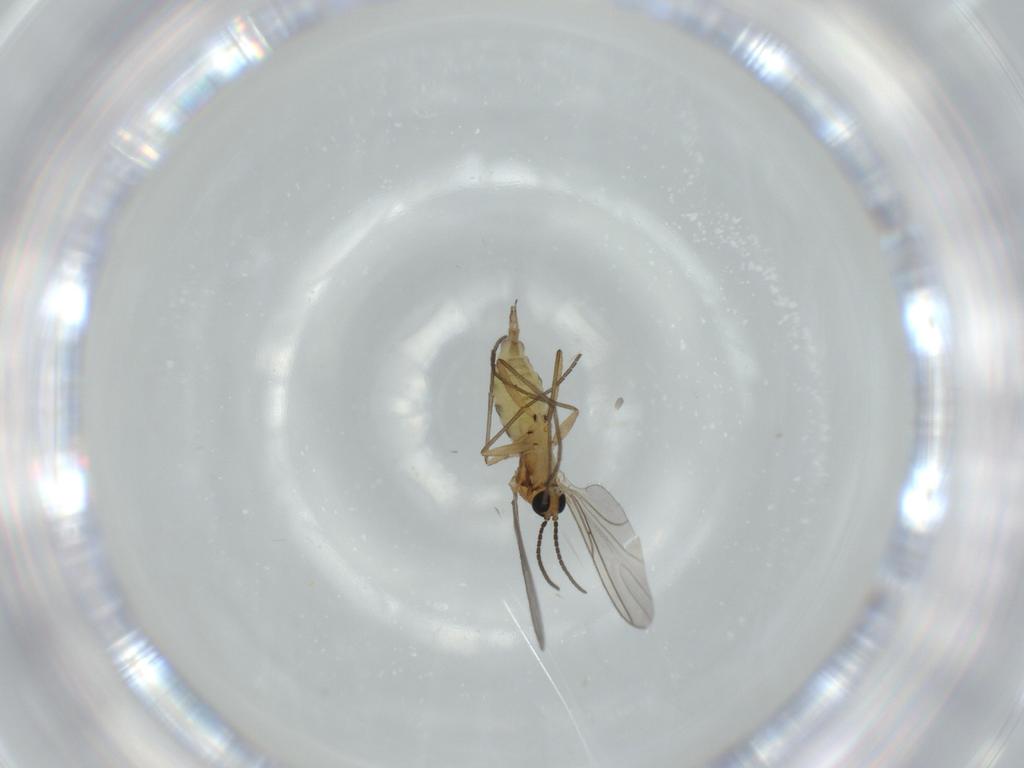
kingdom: Animalia
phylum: Arthropoda
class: Insecta
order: Diptera
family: Sciaridae
